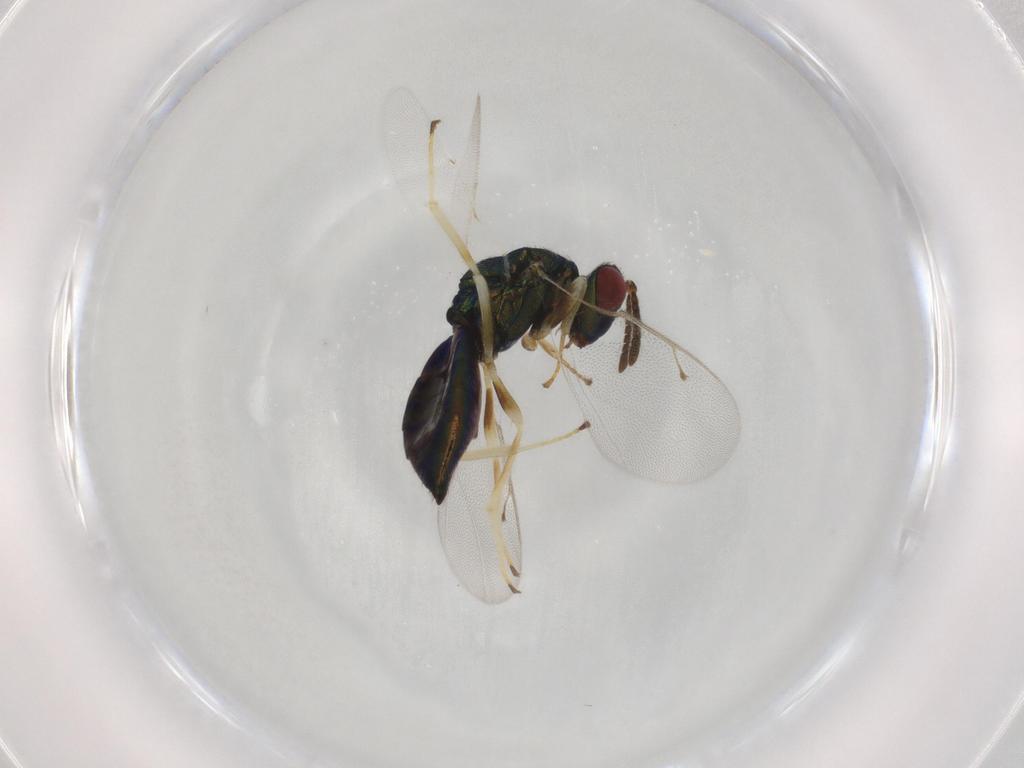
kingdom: Animalia
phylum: Arthropoda
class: Insecta
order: Hymenoptera
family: Pteromalidae
